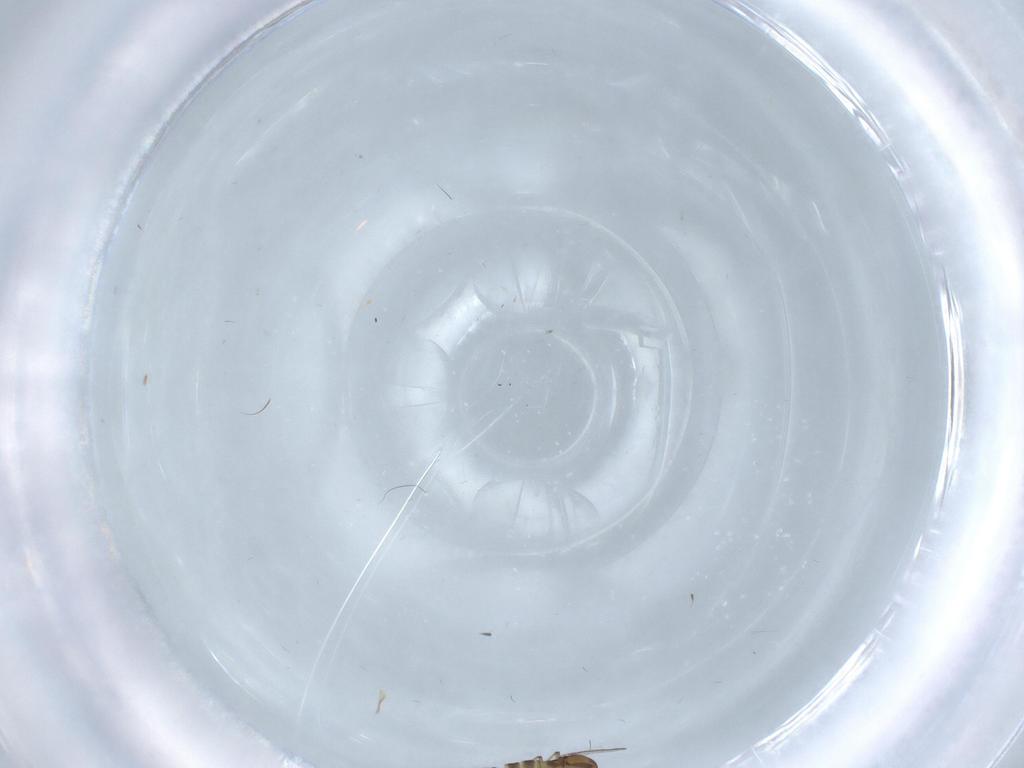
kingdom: Animalia
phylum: Arthropoda
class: Insecta
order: Diptera
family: Chironomidae
